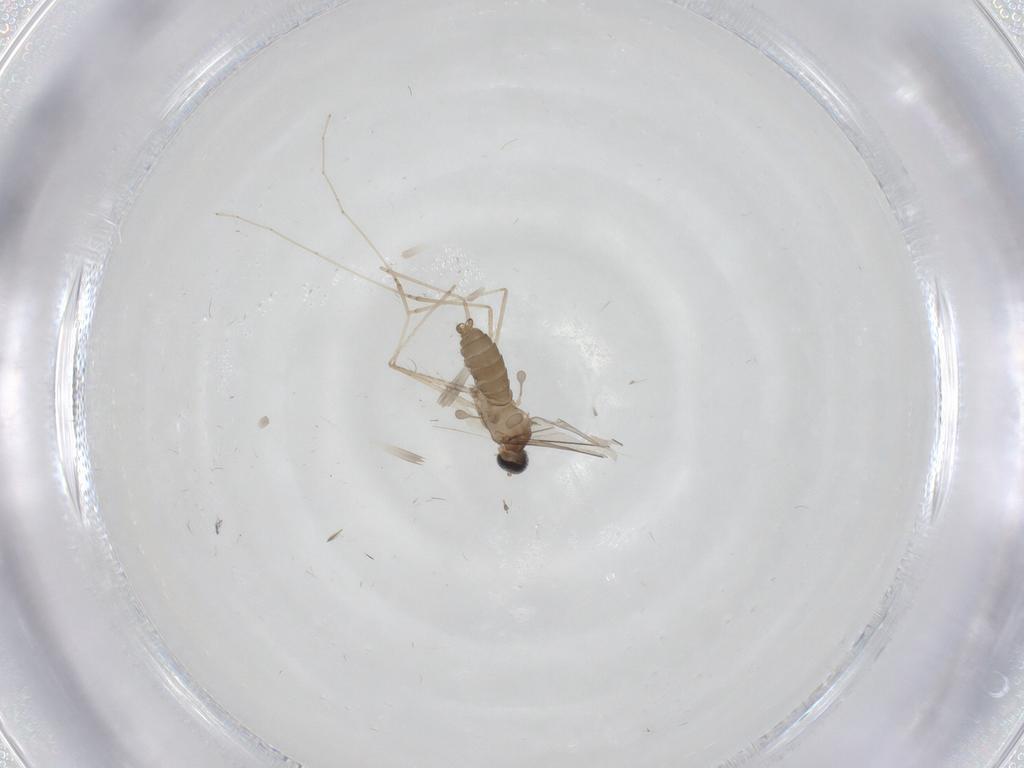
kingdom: Animalia
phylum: Arthropoda
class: Insecta
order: Diptera
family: Cecidomyiidae
